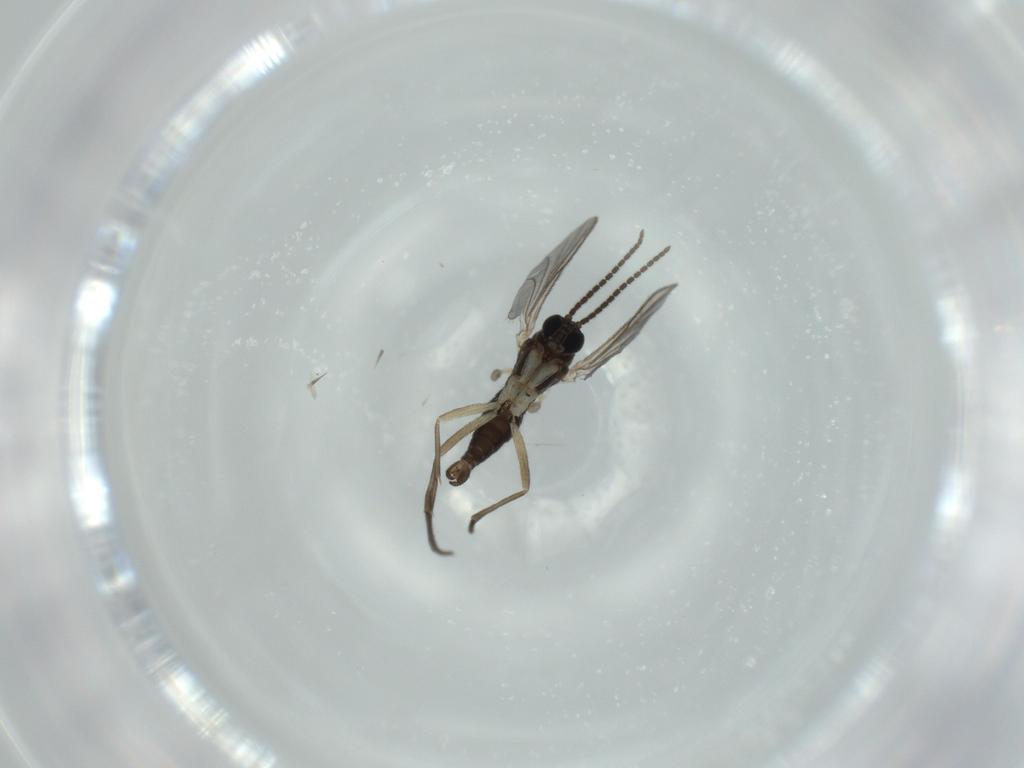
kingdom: Animalia
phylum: Arthropoda
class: Insecta
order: Diptera
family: Sciaridae
